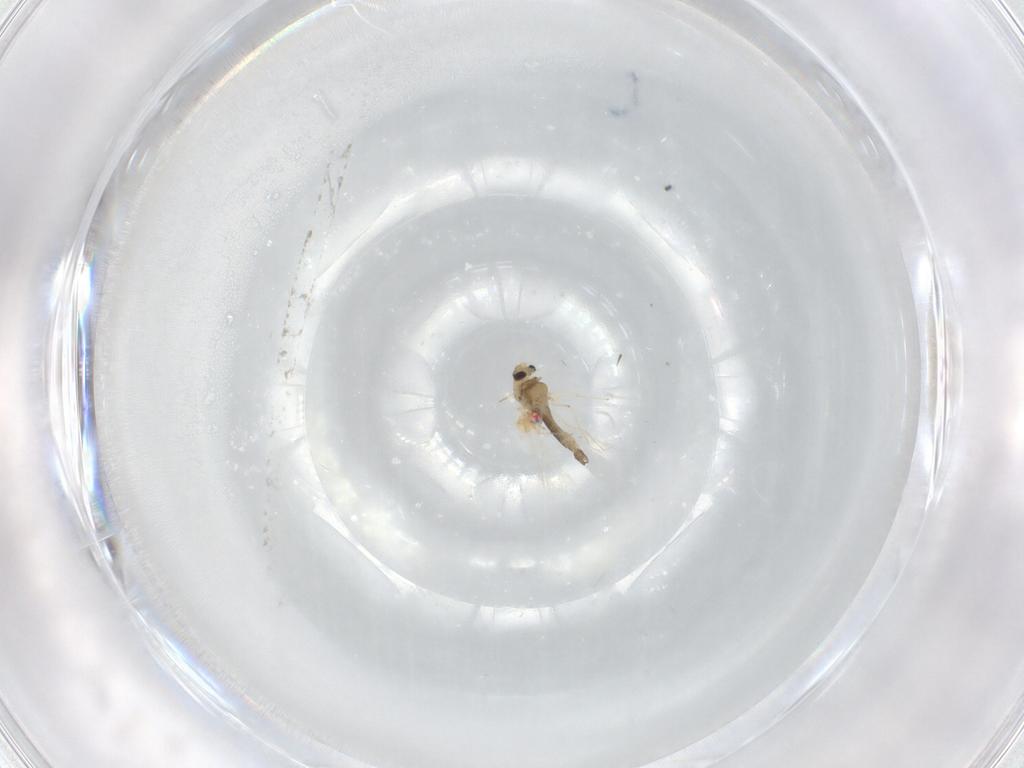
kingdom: Animalia
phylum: Arthropoda
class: Insecta
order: Diptera
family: Chironomidae
